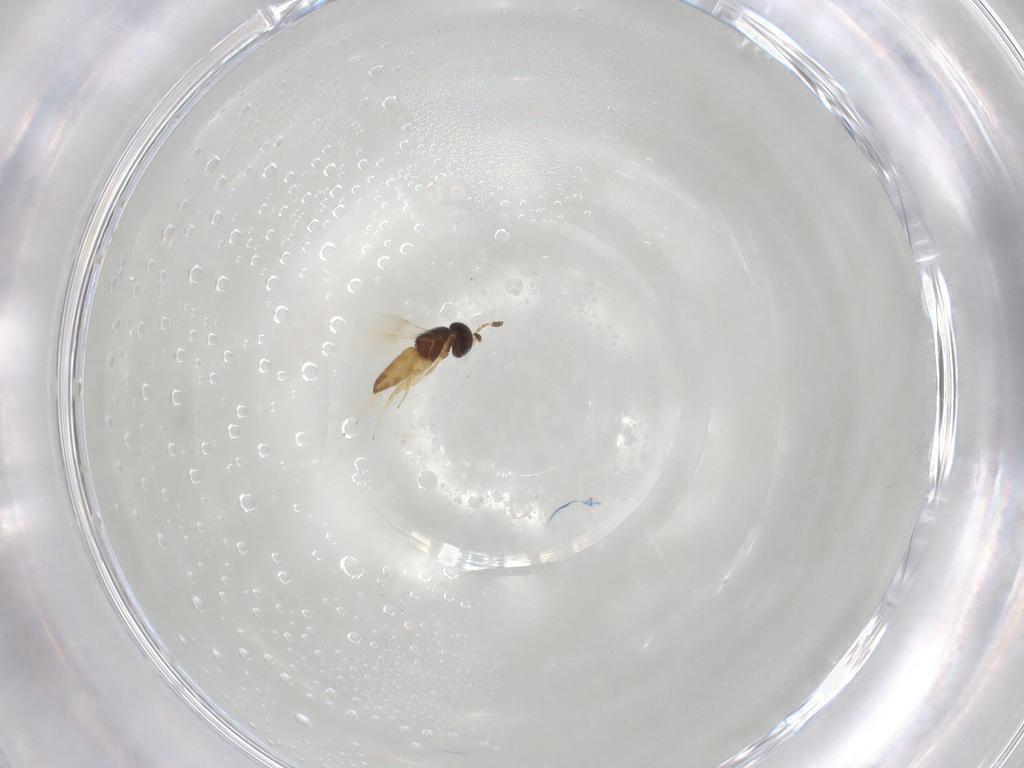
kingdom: Animalia
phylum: Arthropoda
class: Insecta
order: Hymenoptera
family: Scelionidae
